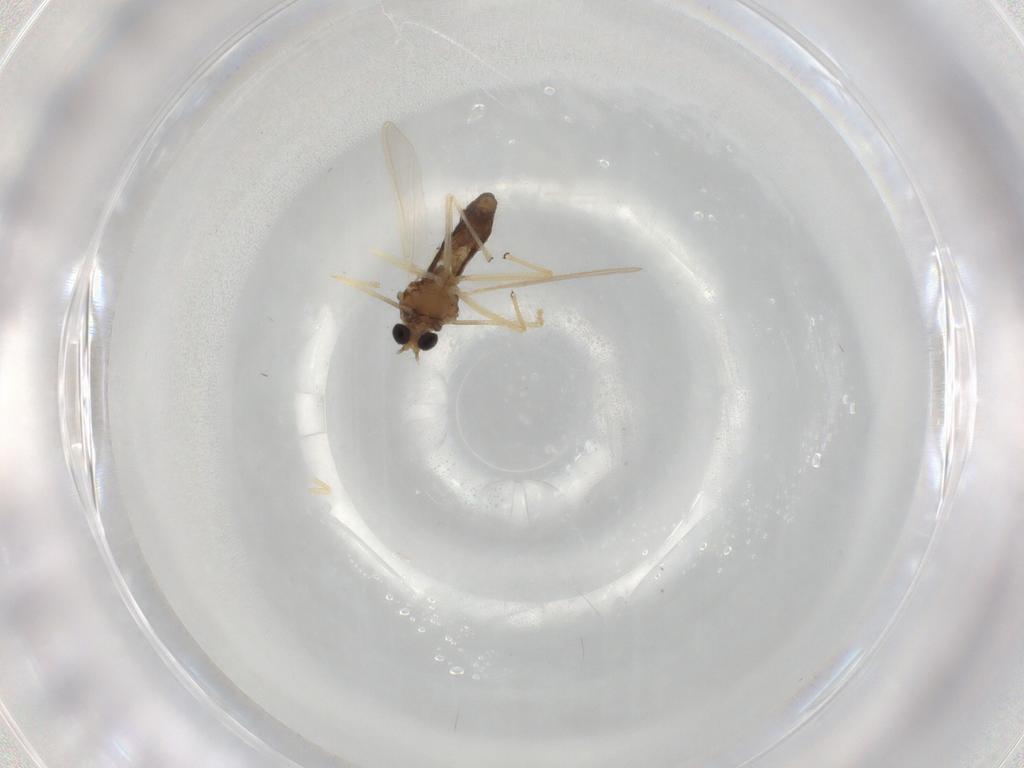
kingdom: Animalia
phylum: Arthropoda
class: Insecta
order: Diptera
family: Chironomidae
